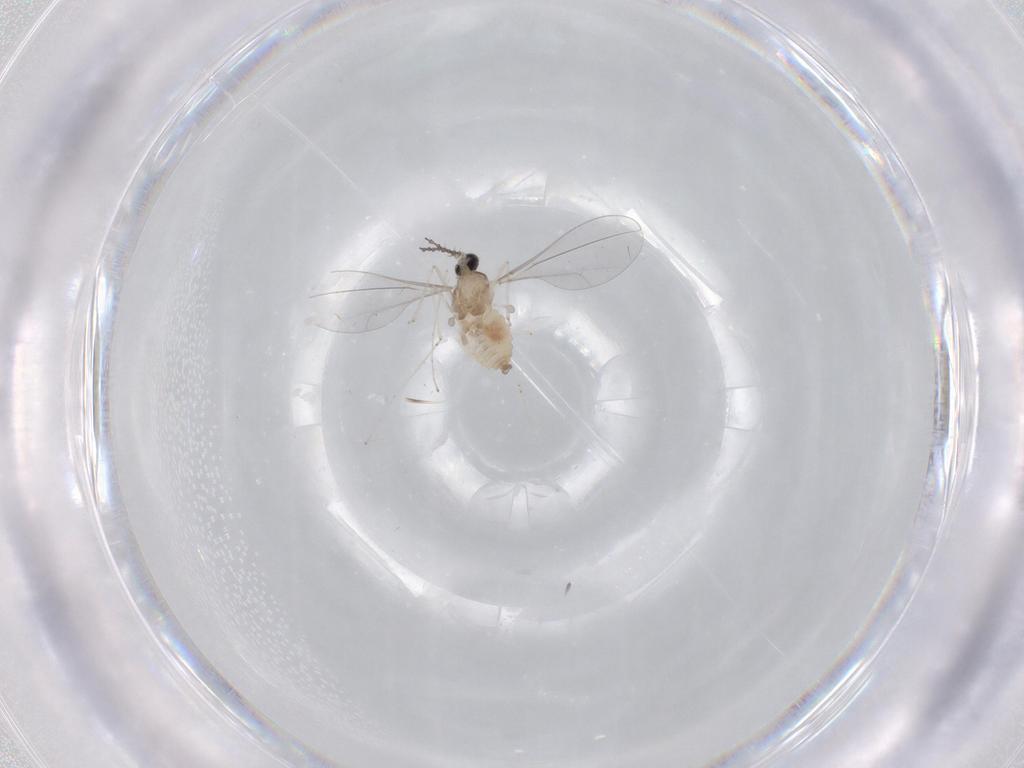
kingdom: Animalia
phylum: Arthropoda
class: Insecta
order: Diptera
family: Cecidomyiidae
